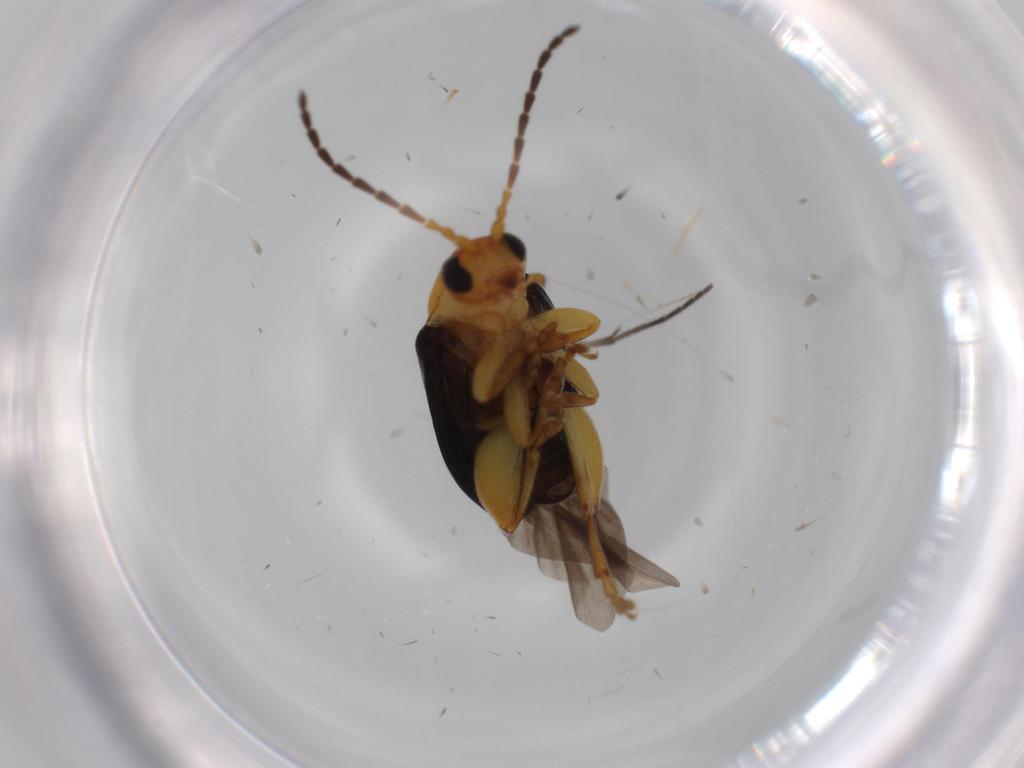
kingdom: Animalia
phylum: Arthropoda
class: Insecta
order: Coleoptera
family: Chrysomelidae
